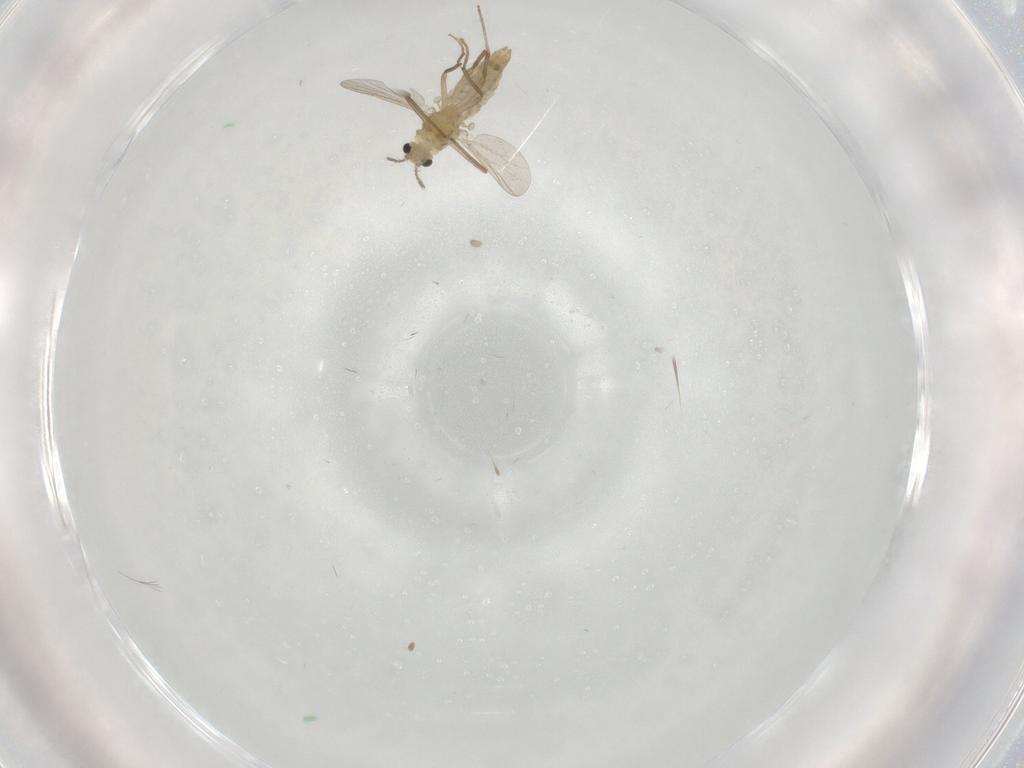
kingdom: Animalia
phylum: Arthropoda
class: Insecta
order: Diptera
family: Chironomidae
